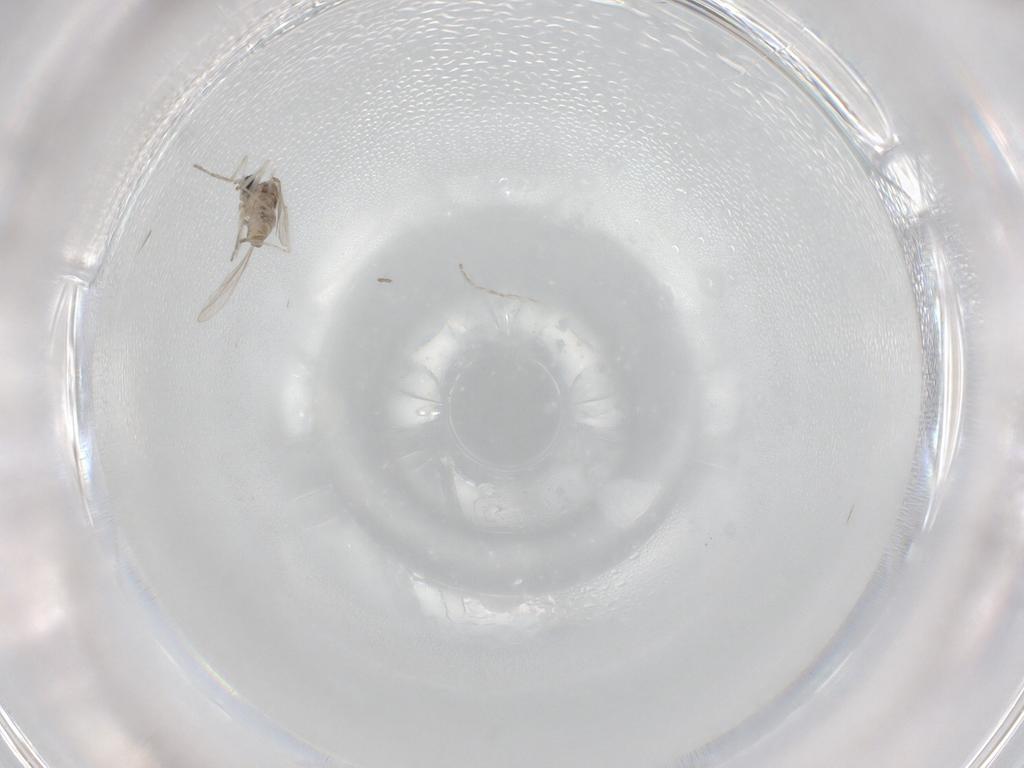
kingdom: Animalia
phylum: Arthropoda
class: Insecta
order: Diptera
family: Cecidomyiidae
